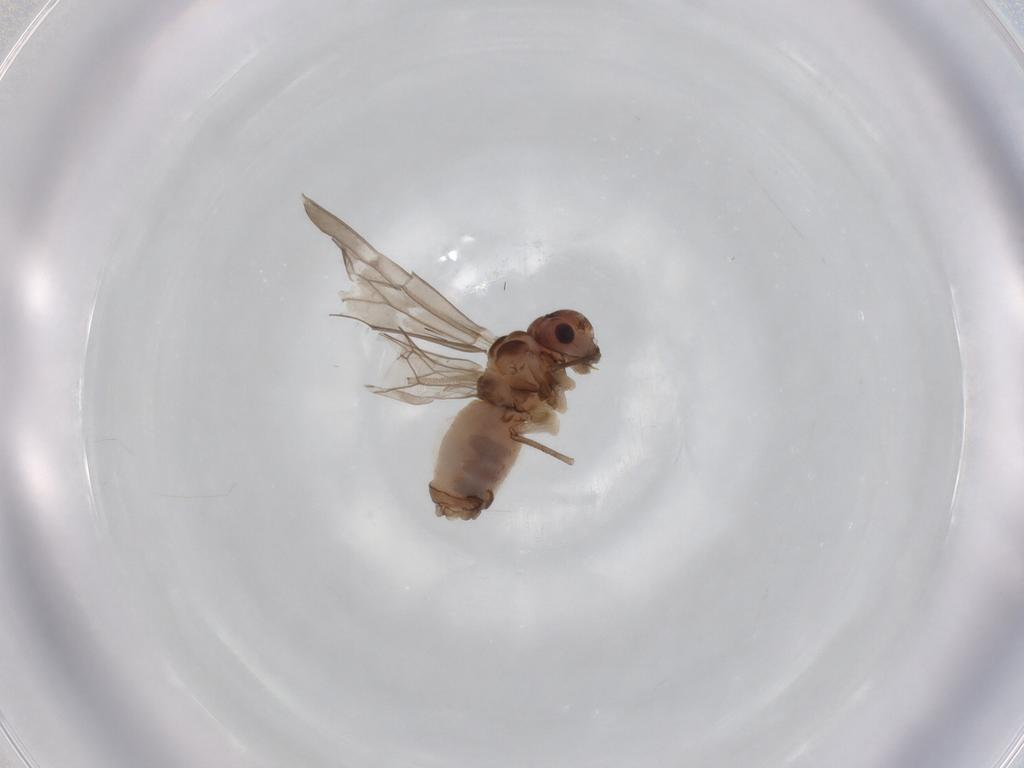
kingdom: Animalia
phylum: Arthropoda
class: Insecta
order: Psocodea
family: Peripsocidae
